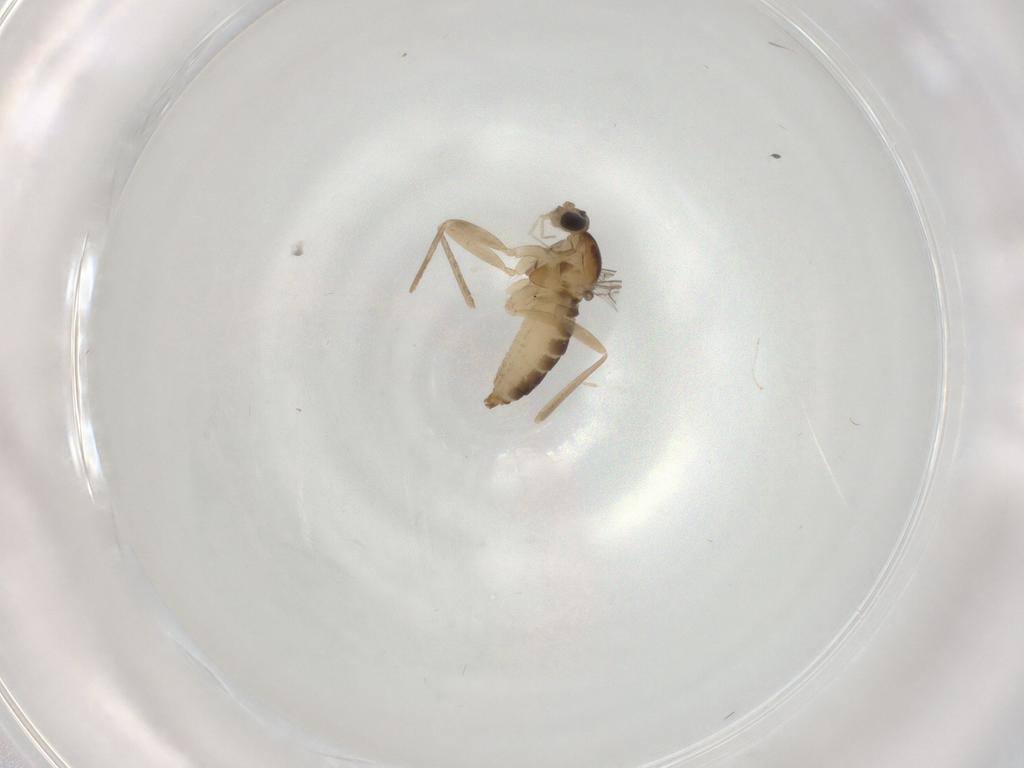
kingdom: Animalia
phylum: Arthropoda
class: Insecta
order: Diptera
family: Cecidomyiidae
